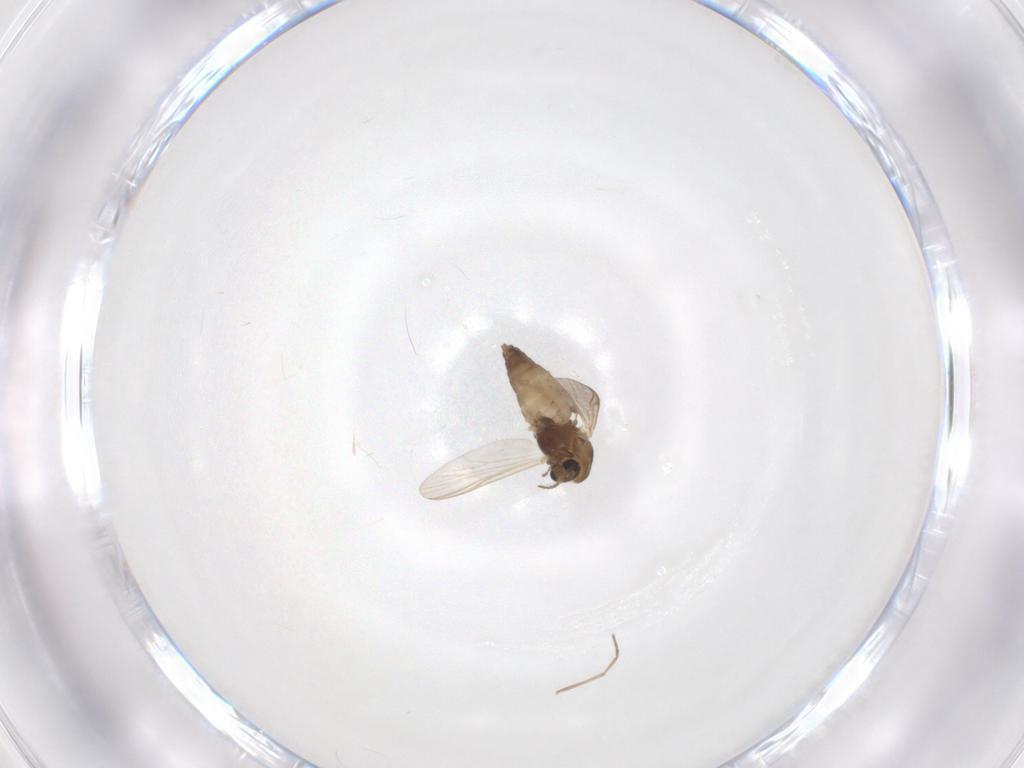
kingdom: Animalia
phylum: Arthropoda
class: Insecta
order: Diptera
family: Chironomidae
